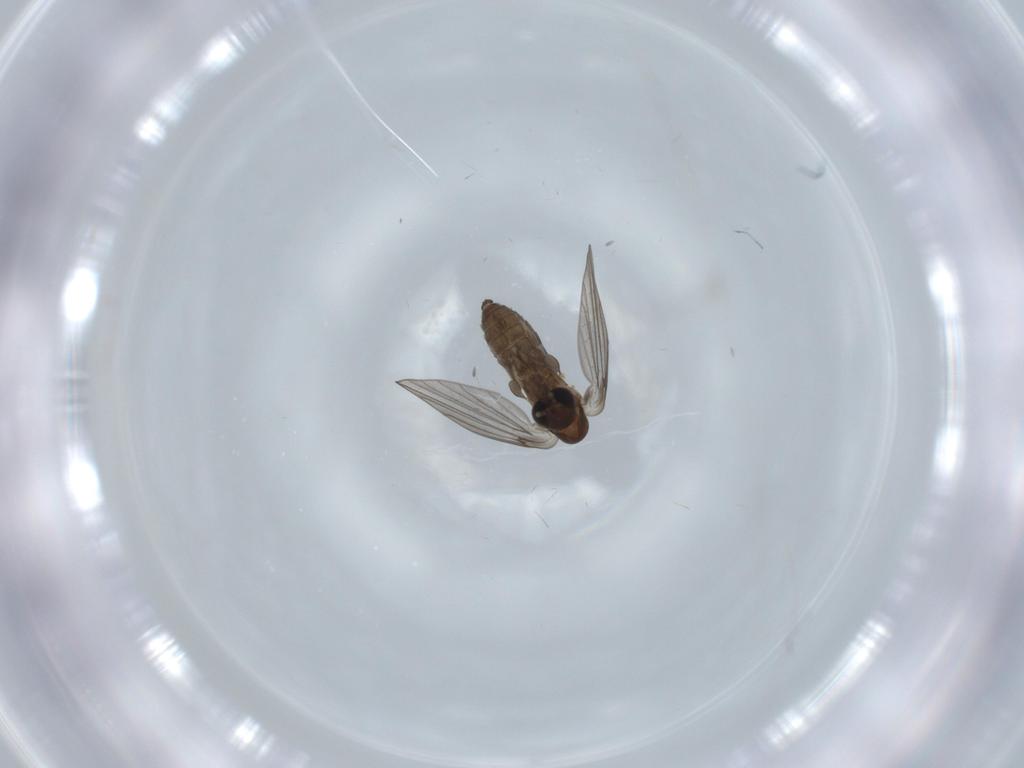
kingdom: Animalia
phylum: Arthropoda
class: Insecta
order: Diptera
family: Psychodidae
